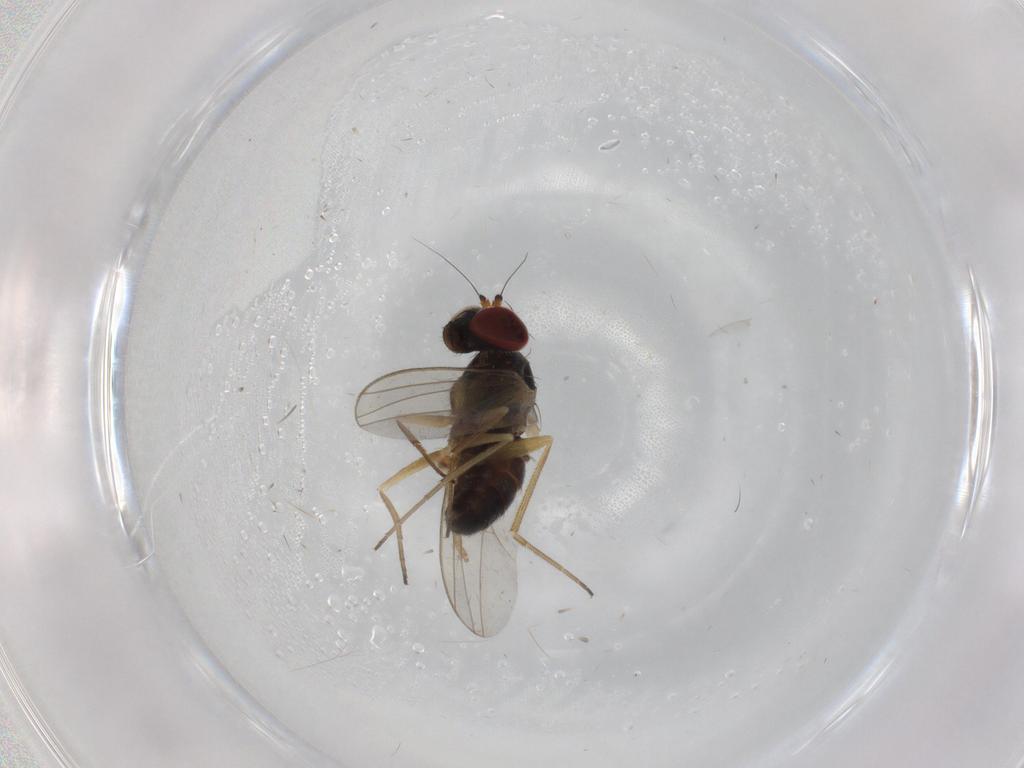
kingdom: Animalia
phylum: Arthropoda
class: Insecta
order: Diptera
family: Dolichopodidae
